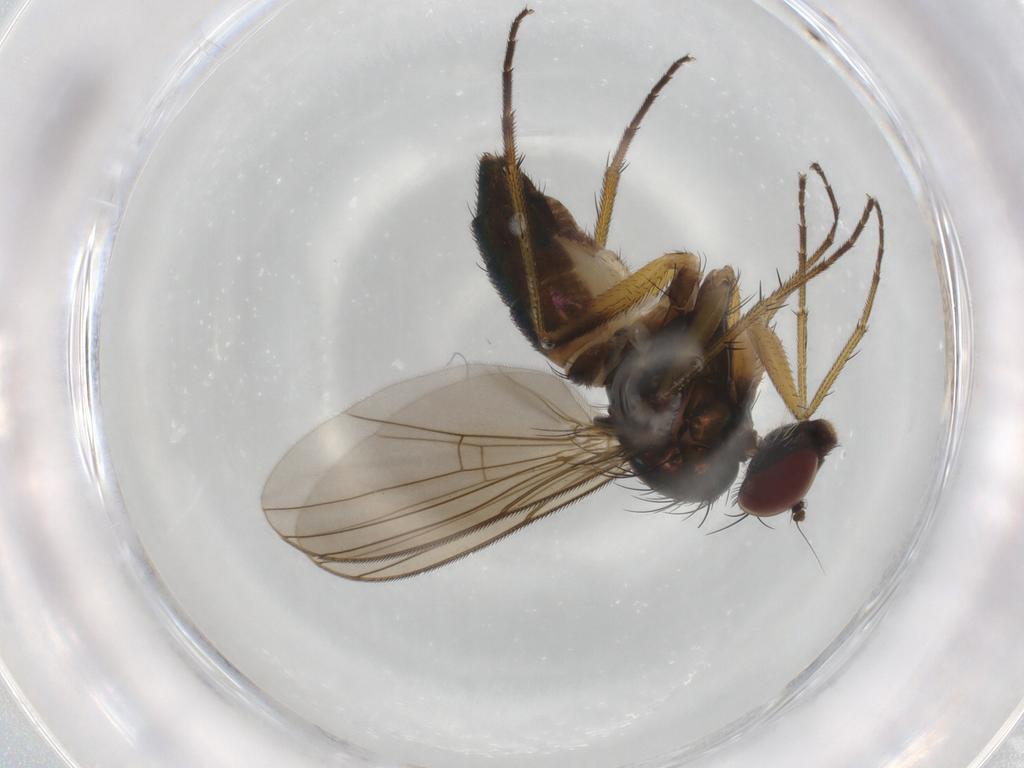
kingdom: Animalia
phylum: Arthropoda
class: Insecta
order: Diptera
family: Dolichopodidae
